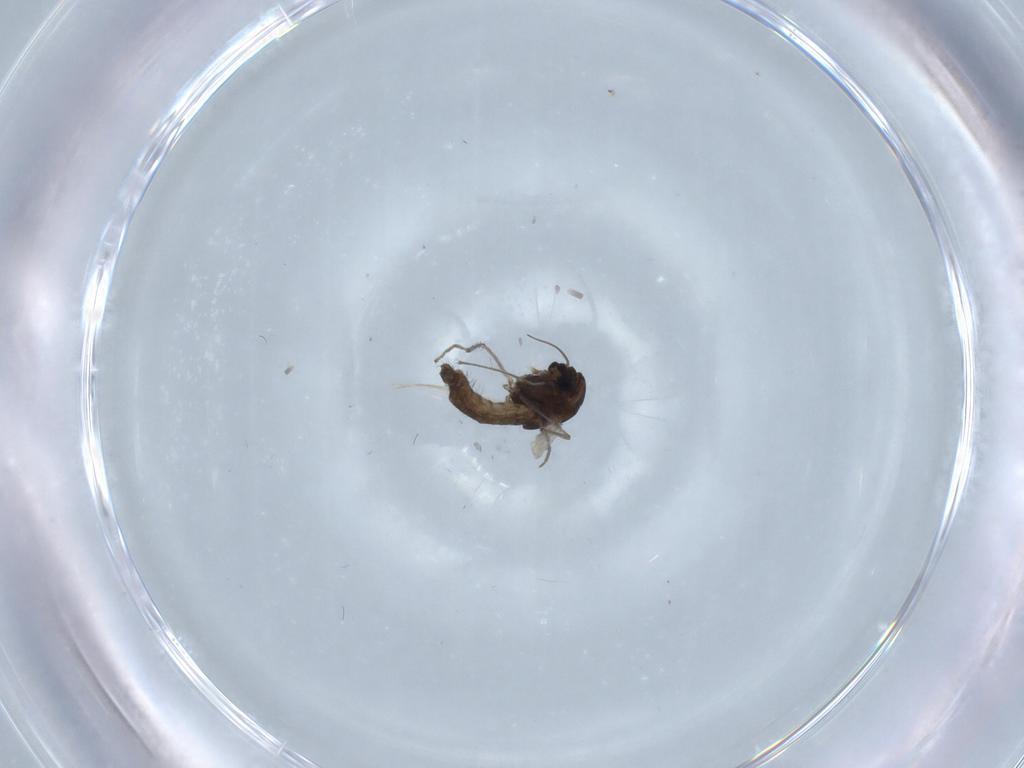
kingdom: Animalia
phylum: Arthropoda
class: Insecta
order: Diptera
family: Chironomidae
